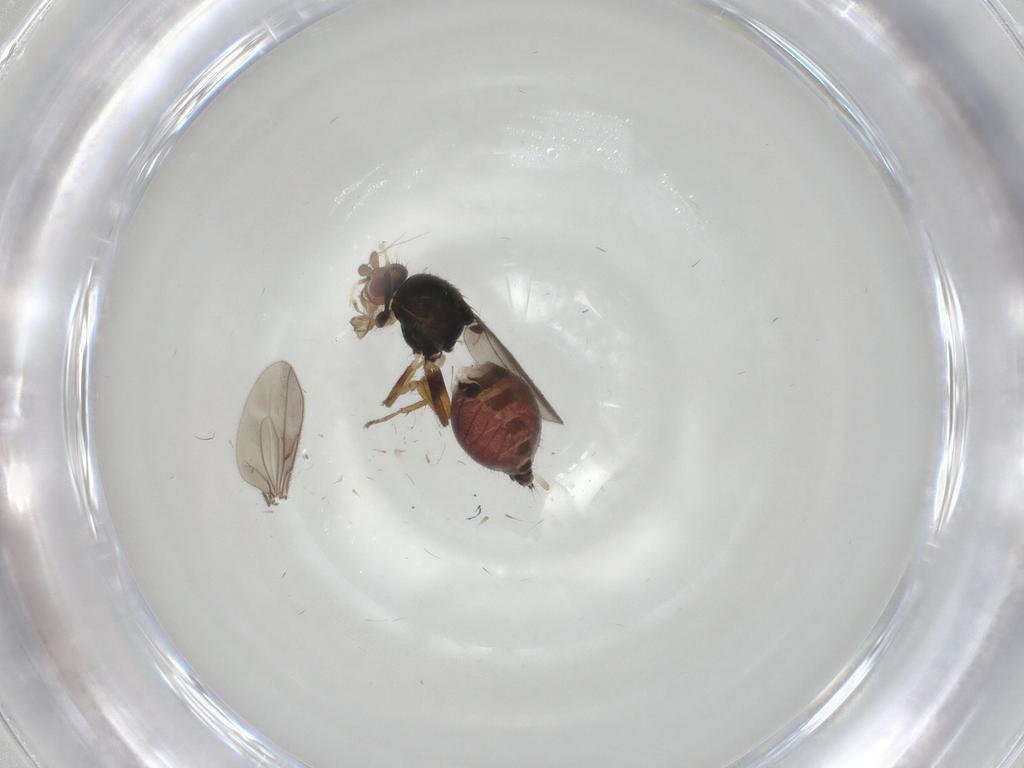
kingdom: Animalia
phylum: Arthropoda
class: Insecta
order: Diptera
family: Sphaeroceridae
